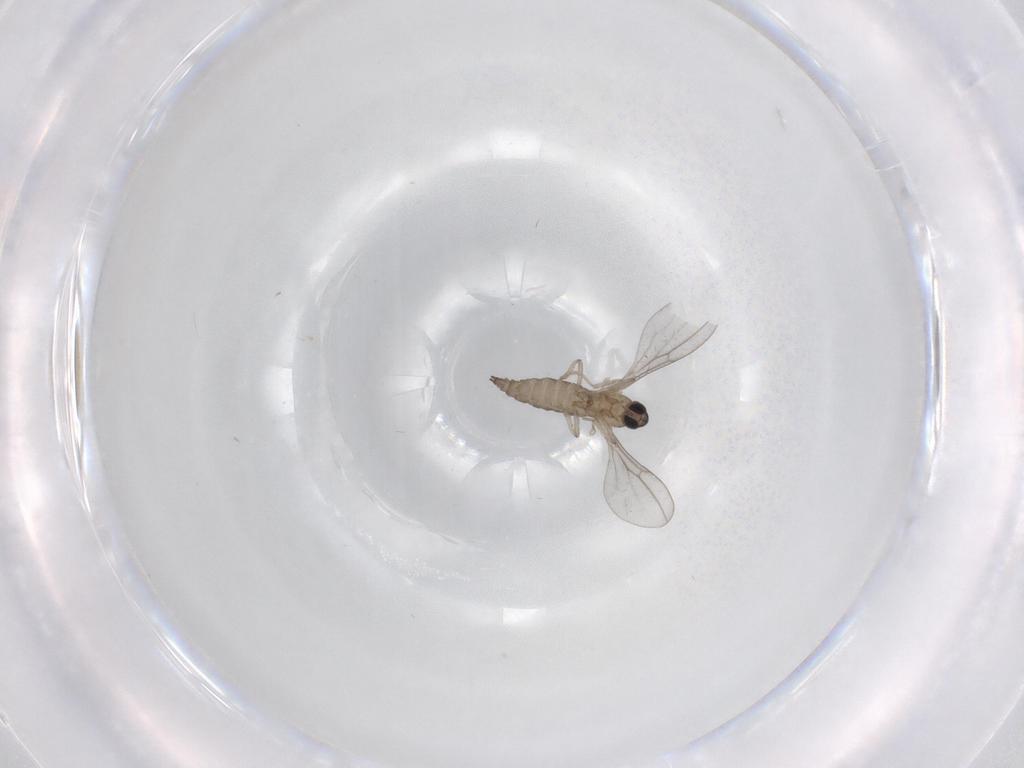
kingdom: Animalia
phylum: Arthropoda
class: Insecta
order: Diptera
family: Cecidomyiidae
